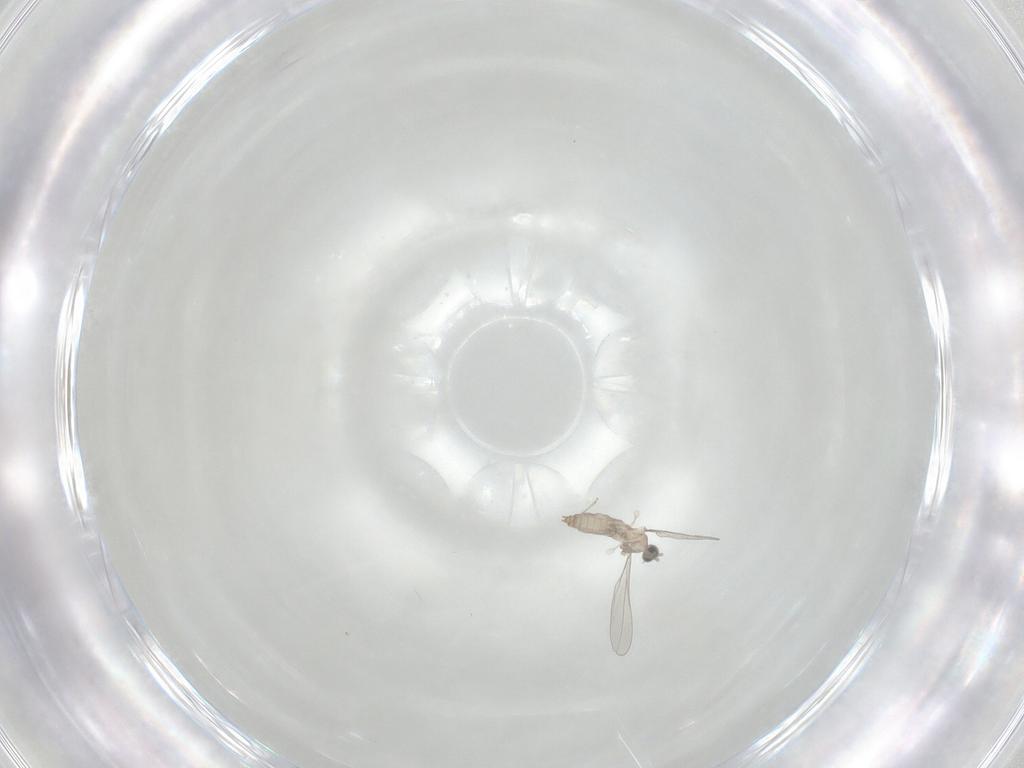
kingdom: Animalia
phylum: Arthropoda
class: Insecta
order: Diptera
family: Cecidomyiidae
